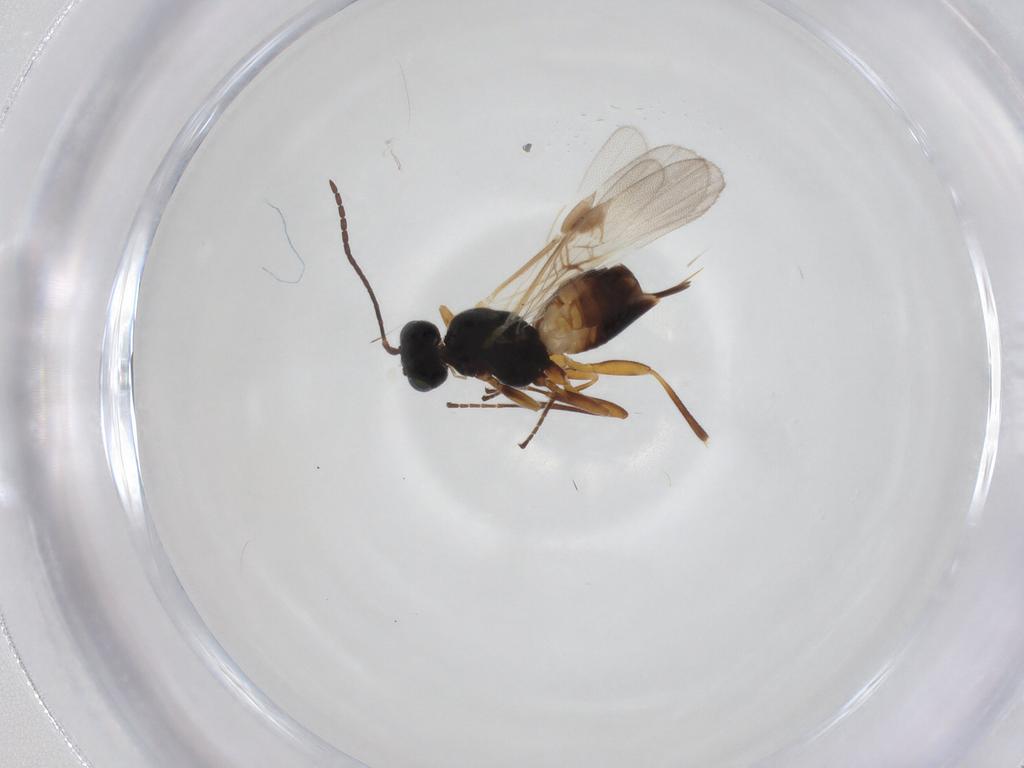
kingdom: Animalia
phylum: Arthropoda
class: Insecta
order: Hymenoptera
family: Braconidae
